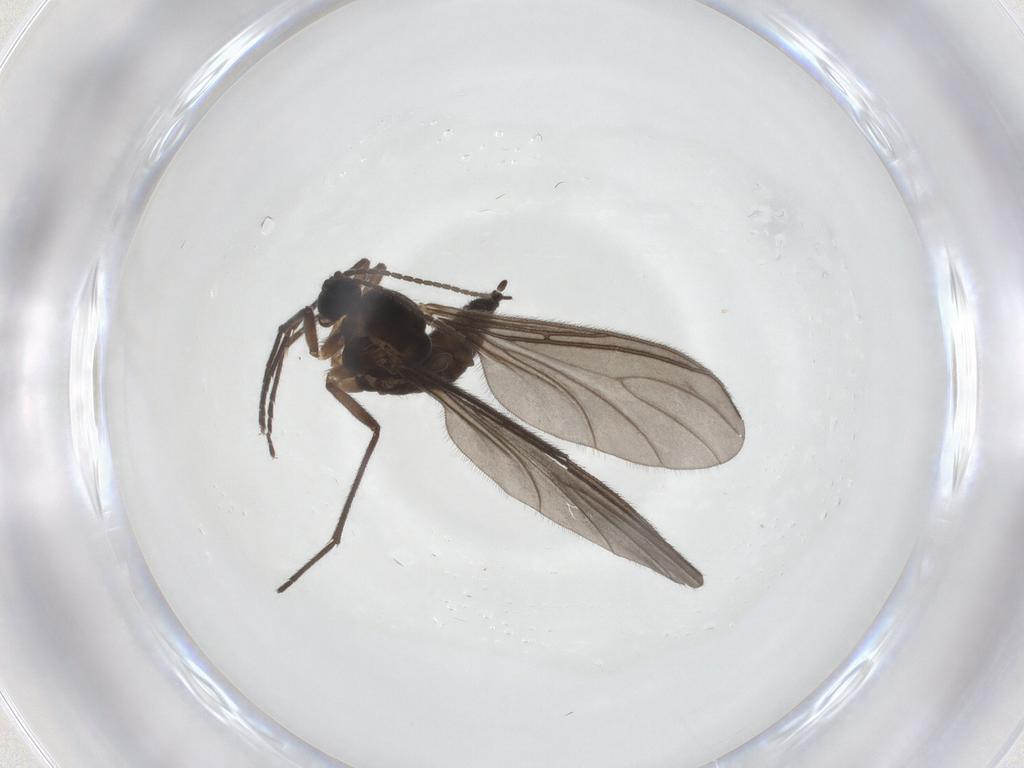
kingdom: Animalia
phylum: Arthropoda
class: Insecta
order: Diptera
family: Sciaridae
